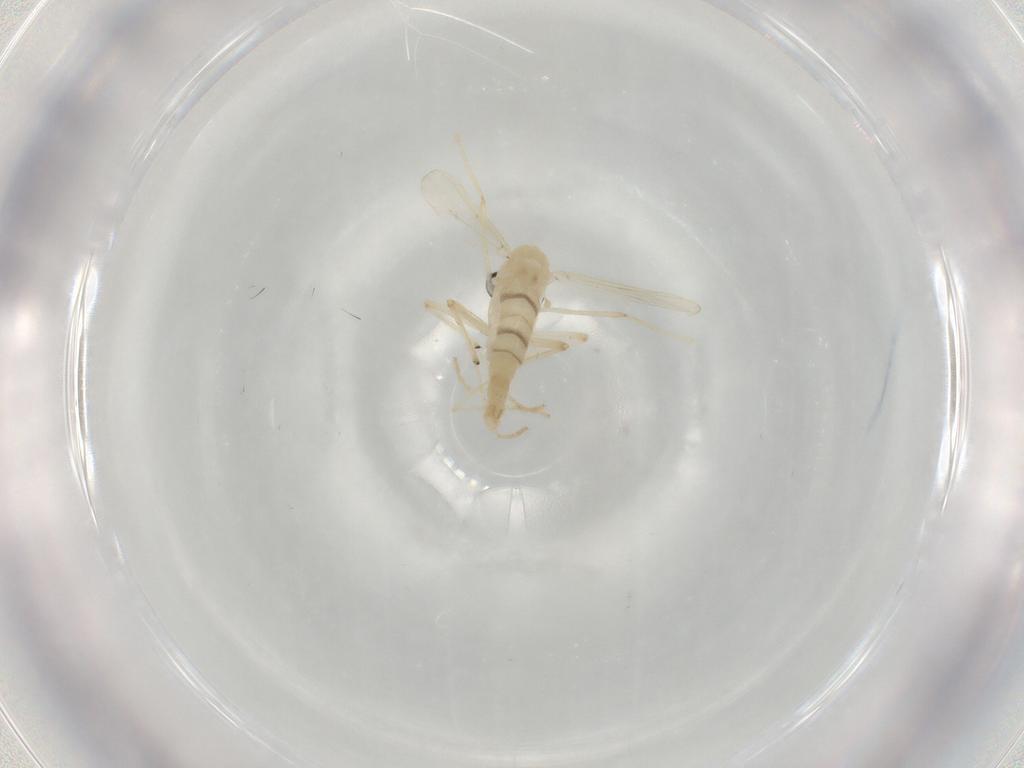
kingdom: Animalia
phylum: Arthropoda
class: Insecta
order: Diptera
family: Chironomidae
